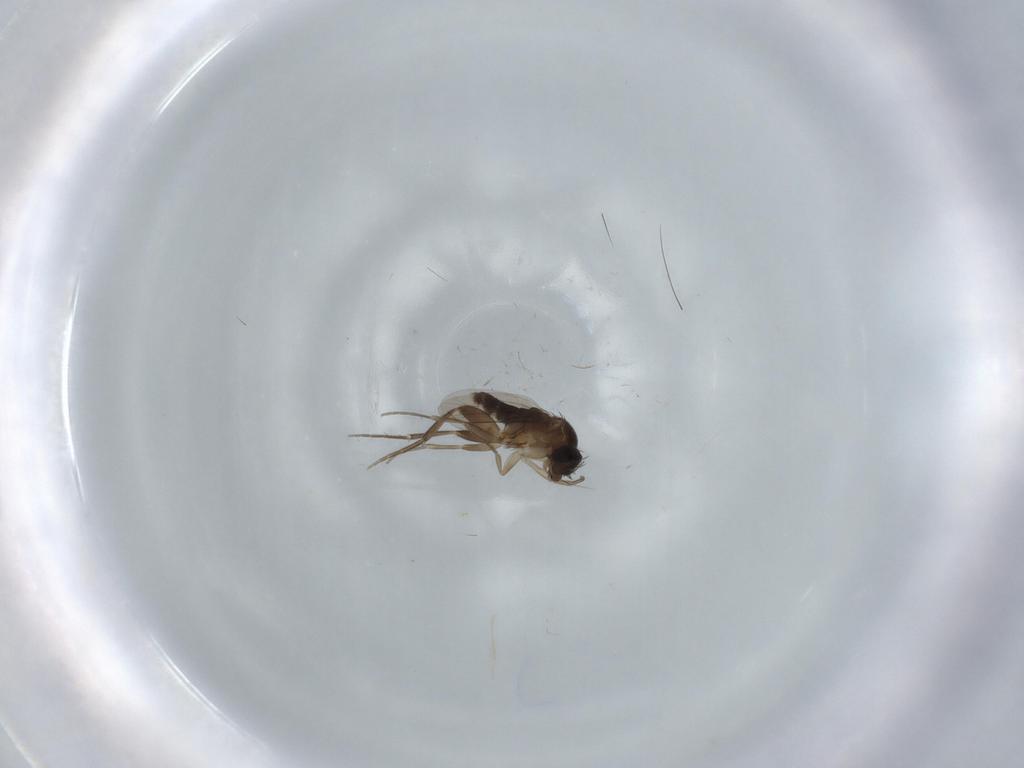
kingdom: Animalia
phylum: Arthropoda
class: Insecta
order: Diptera
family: Phoridae
